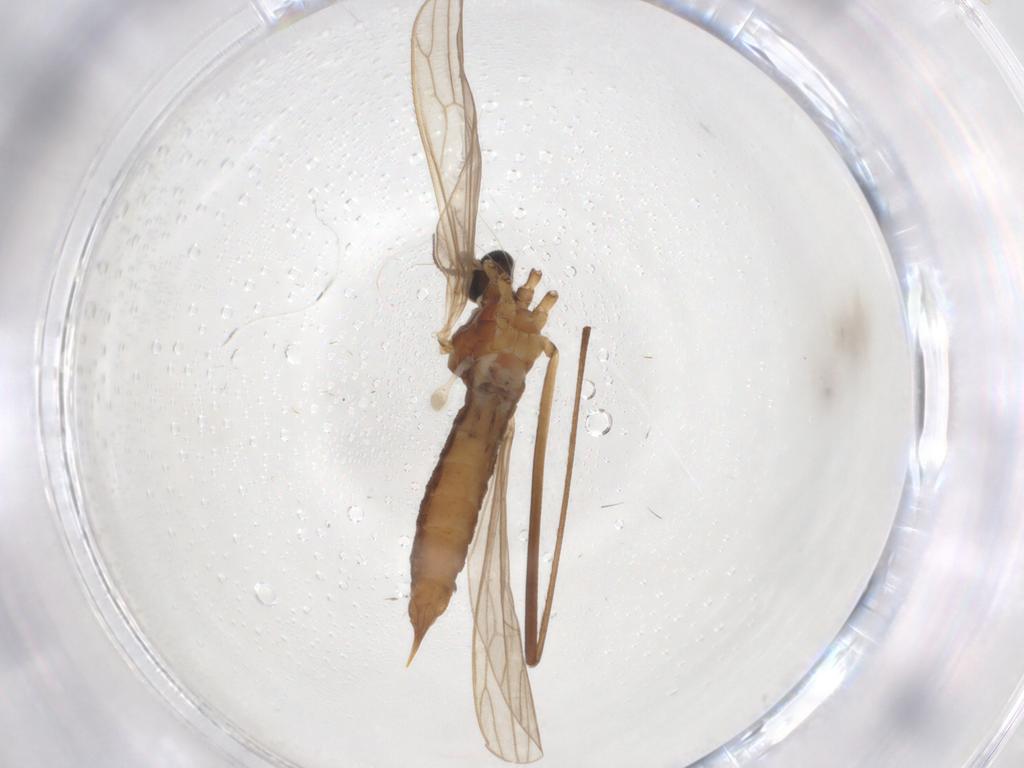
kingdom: Animalia
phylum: Arthropoda
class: Insecta
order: Diptera
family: Limoniidae
